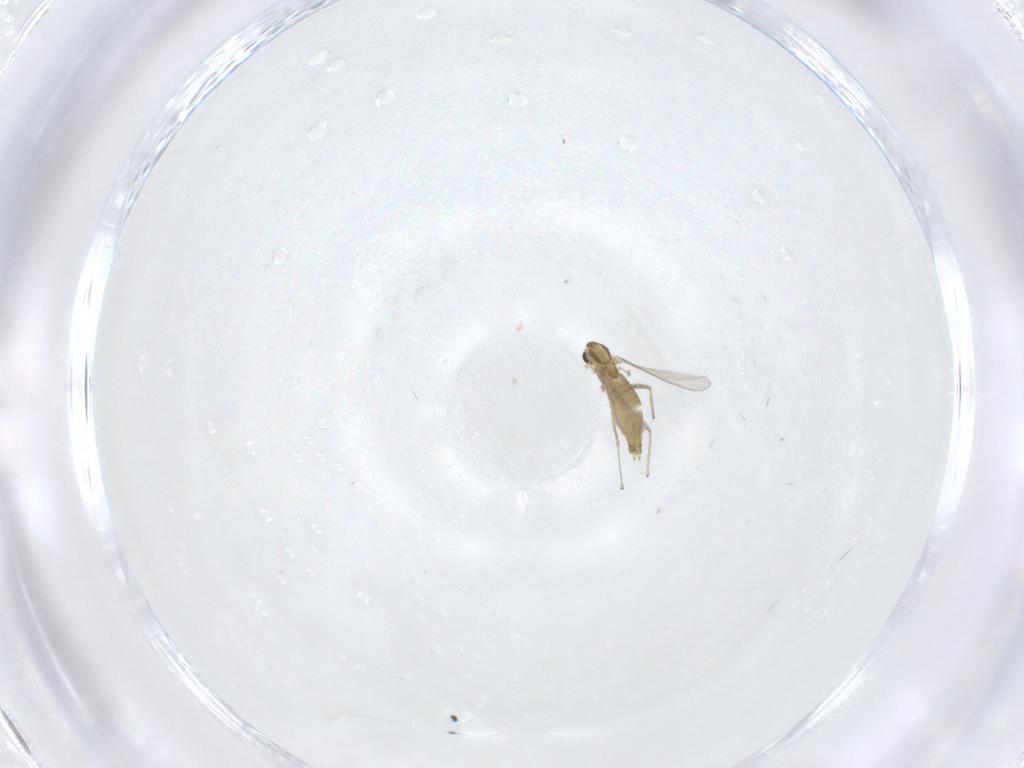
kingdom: Animalia
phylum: Arthropoda
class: Insecta
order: Diptera
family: Chironomidae
